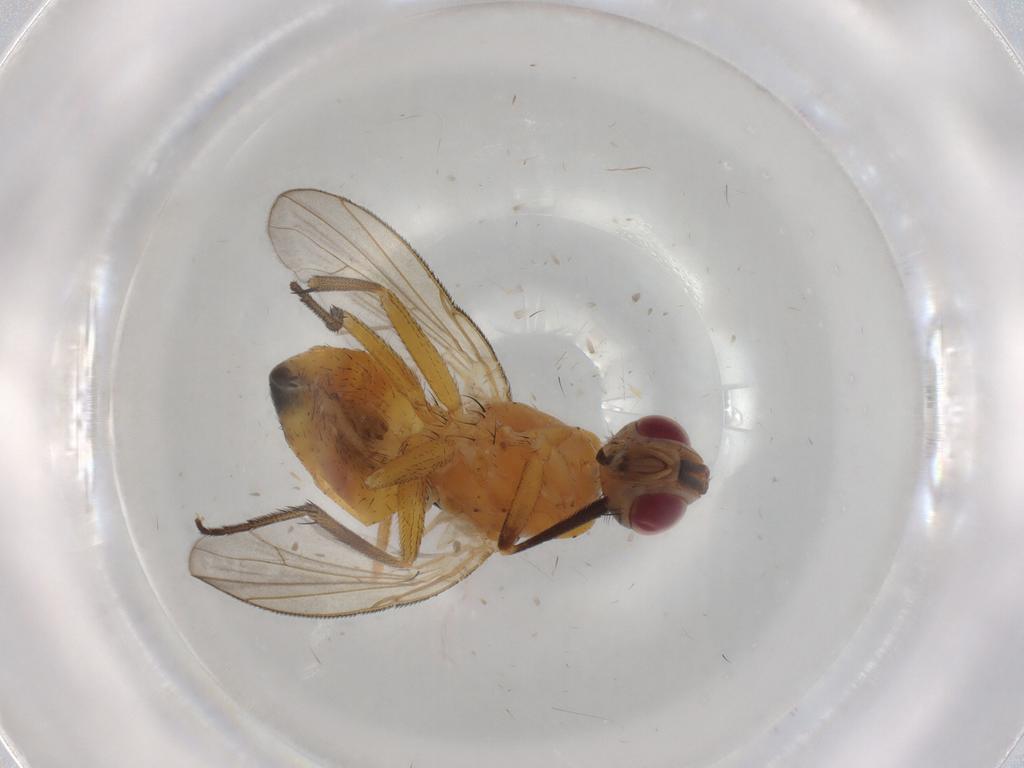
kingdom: Animalia
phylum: Arthropoda
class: Insecta
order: Diptera
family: Muscidae
